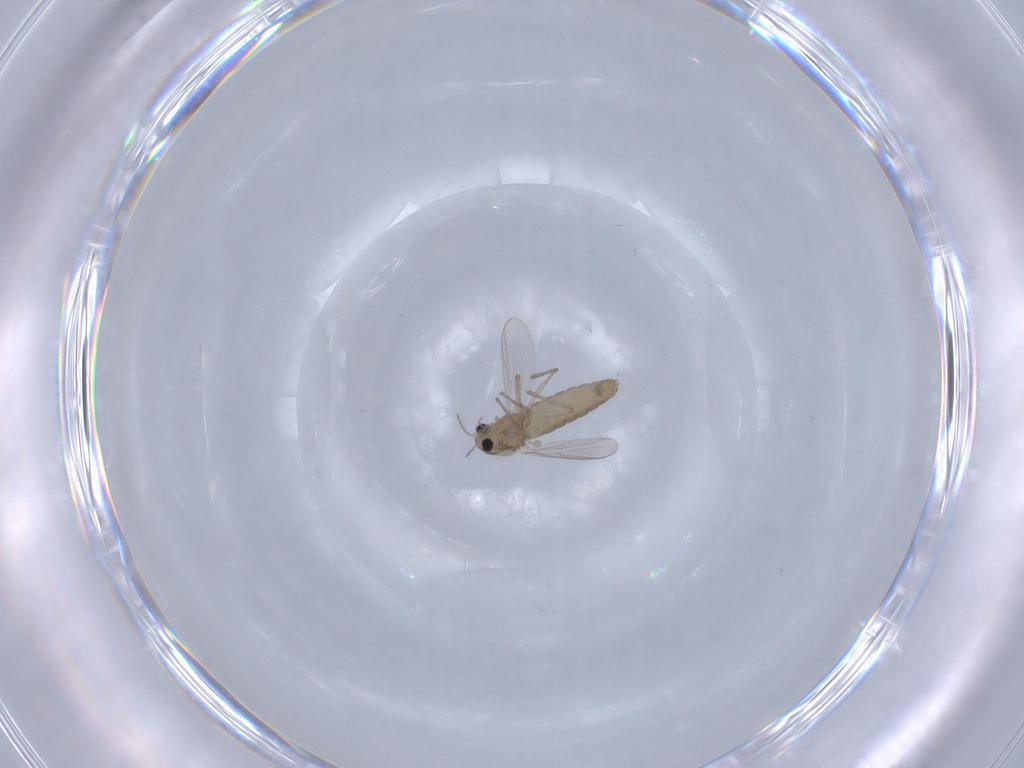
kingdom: Animalia
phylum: Arthropoda
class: Insecta
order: Diptera
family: Chironomidae
